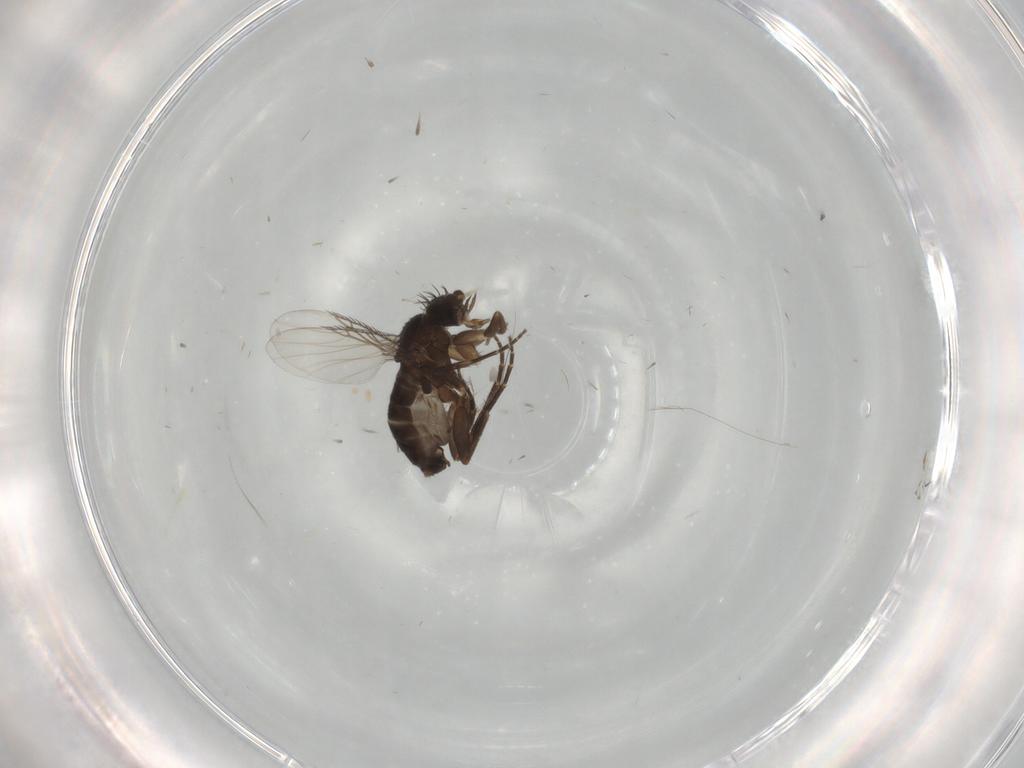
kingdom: Animalia
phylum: Arthropoda
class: Insecta
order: Diptera
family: Phoridae
